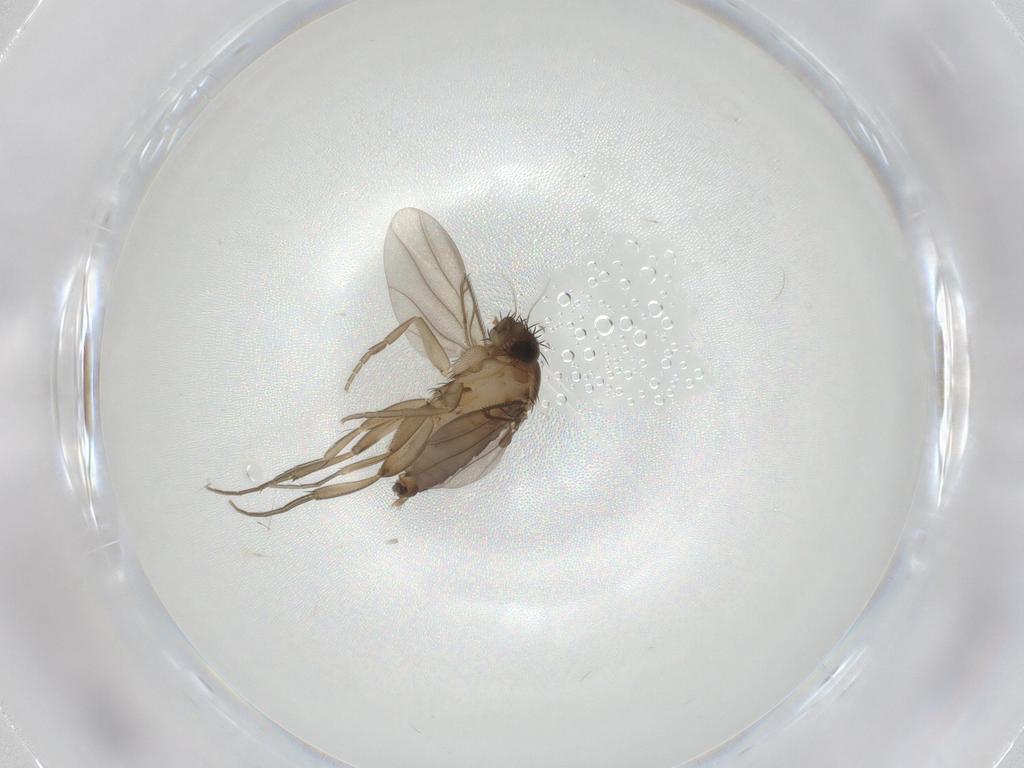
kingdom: Animalia
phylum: Arthropoda
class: Insecta
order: Diptera
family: Phoridae
